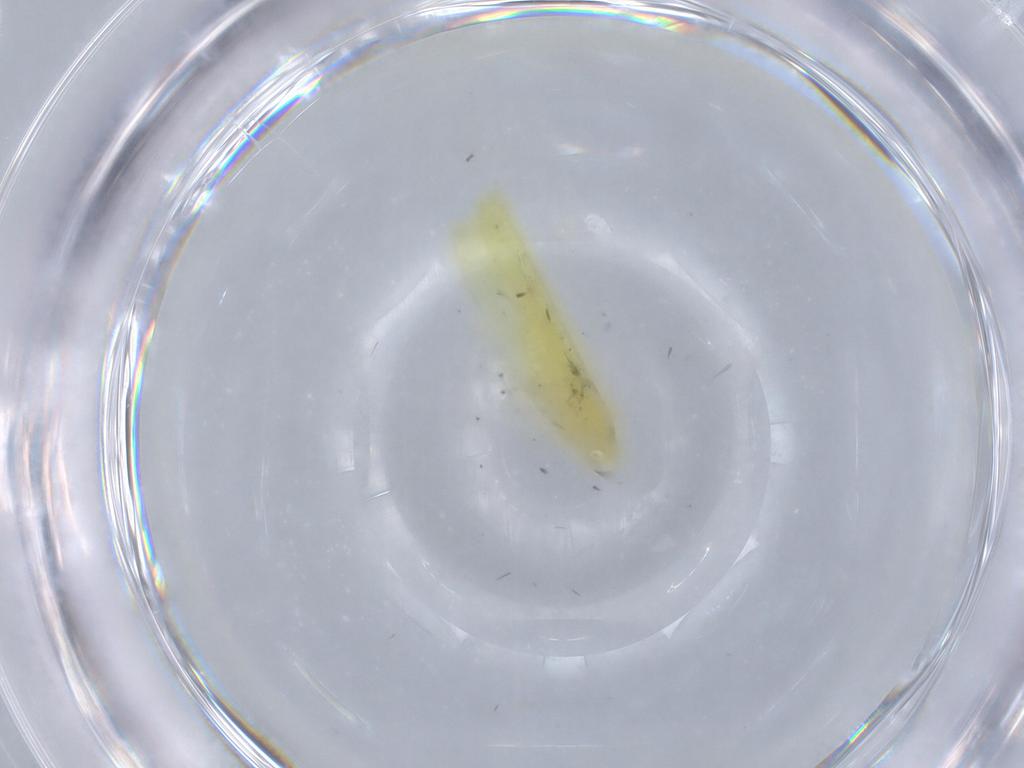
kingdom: Animalia
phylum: Arthropoda
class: Insecta
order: Hemiptera
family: Cicadellidae
